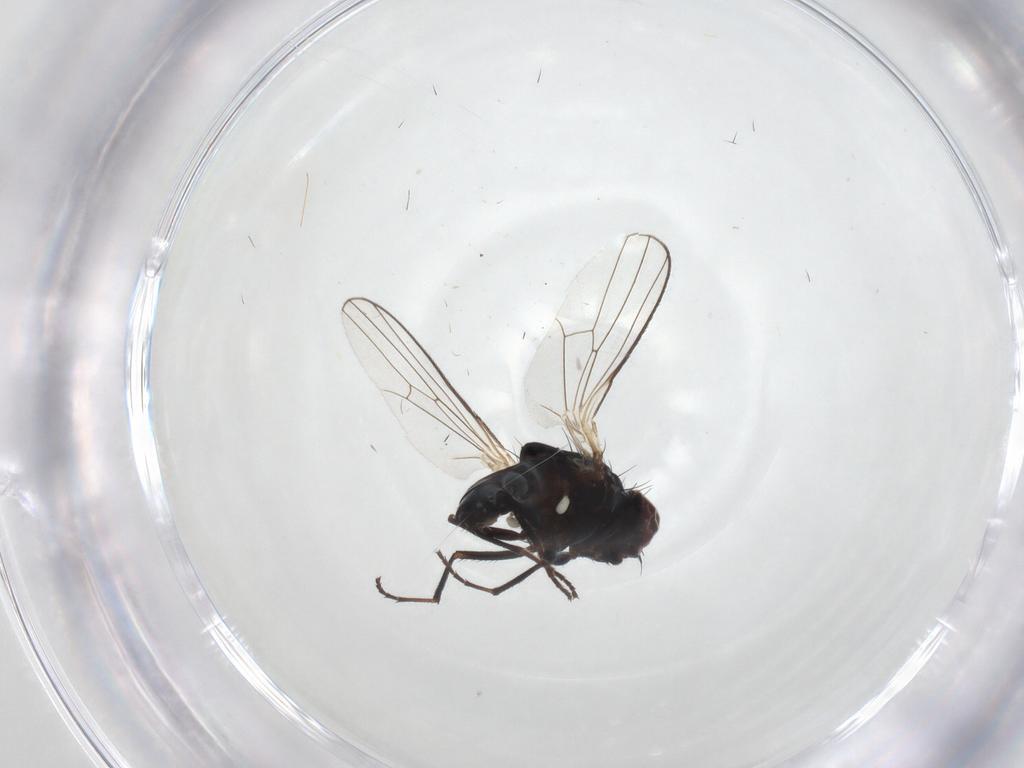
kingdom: Animalia
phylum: Arthropoda
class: Insecta
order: Diptera
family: Carnidae
